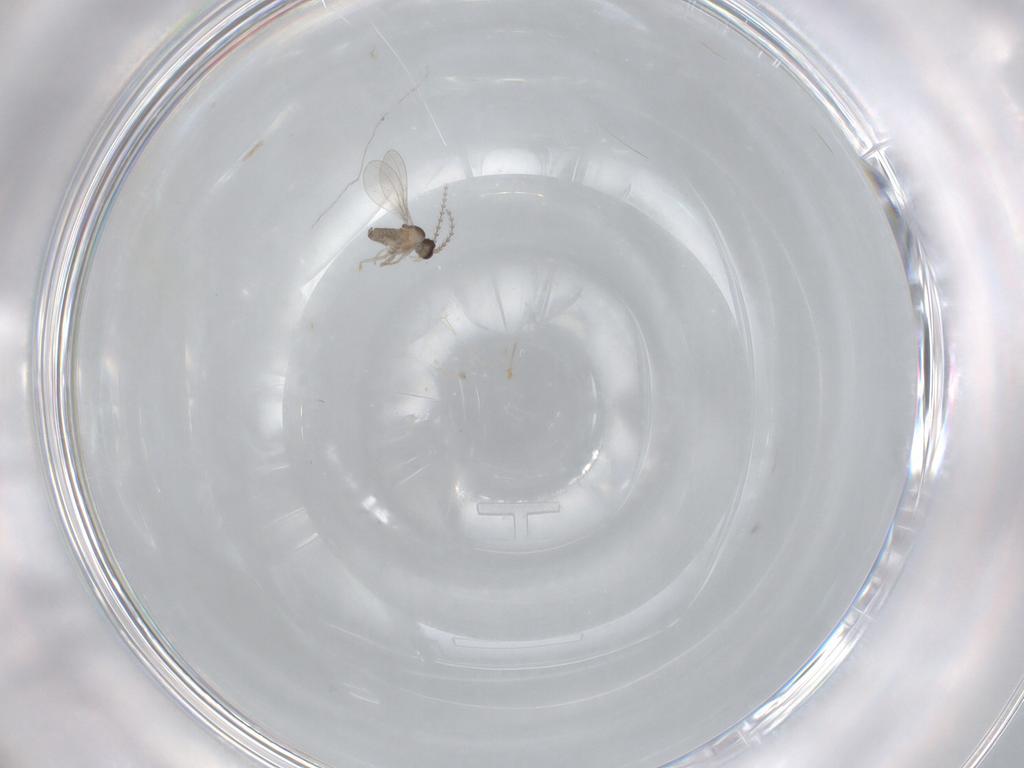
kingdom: Animalia
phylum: Arthropoda
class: Insecta
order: Diptera
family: Cecidomyiidae
